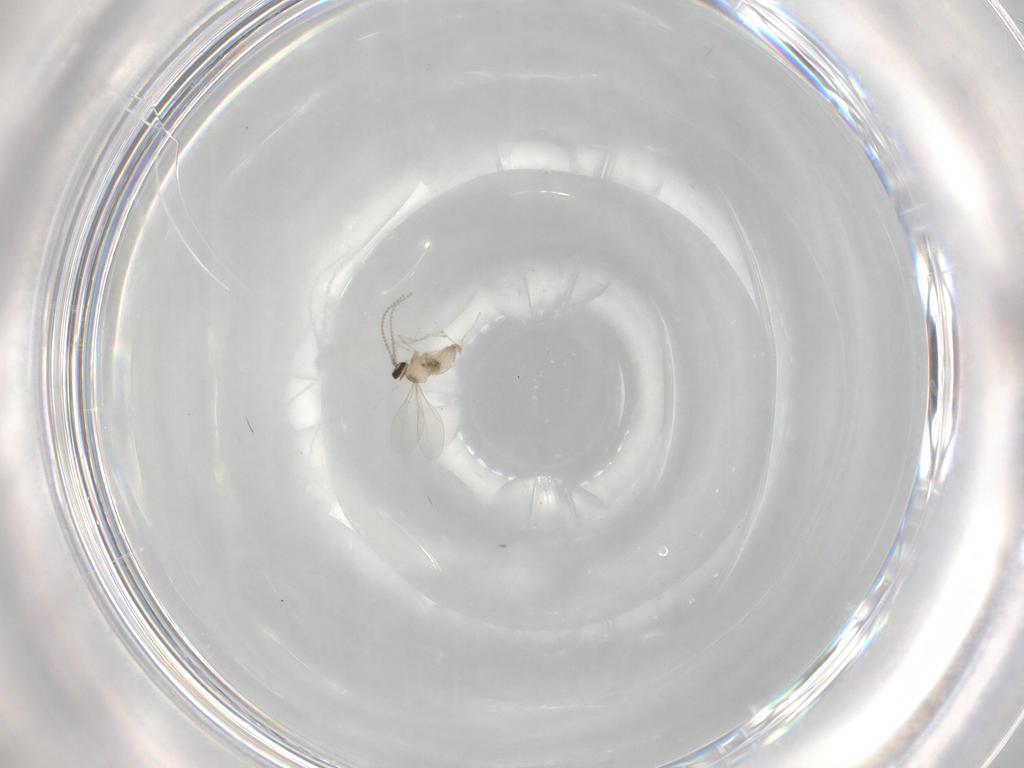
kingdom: Animalia
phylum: Arthropoda
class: Insecta
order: Diptera
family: Cecidomyiidae
